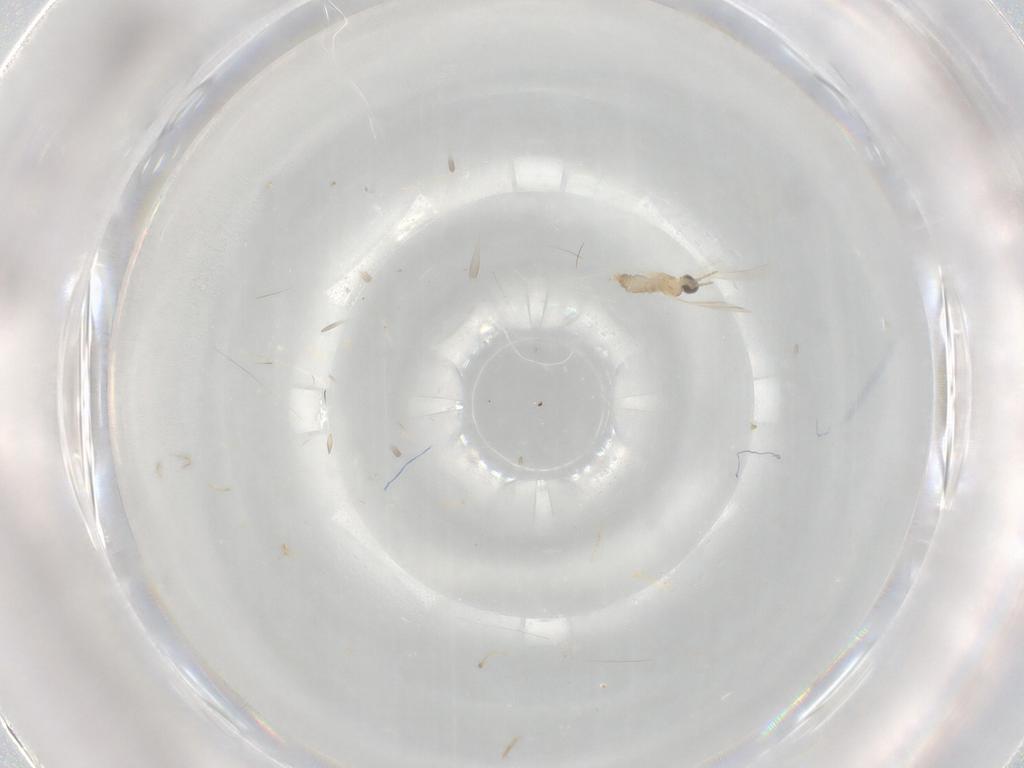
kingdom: Animalia
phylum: Arthropoda
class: Insecta
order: Diptera
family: Cecidomyiidae
